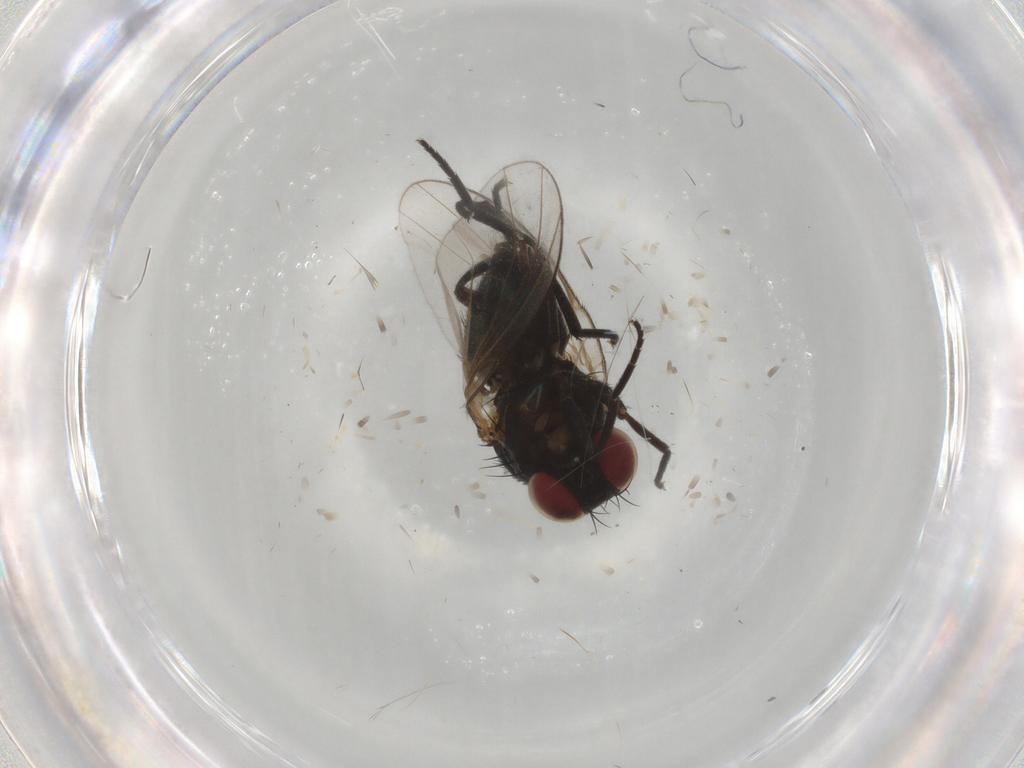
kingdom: Animalia
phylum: Arthropoda
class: Insecta
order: Diptera
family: Agromyzidae
